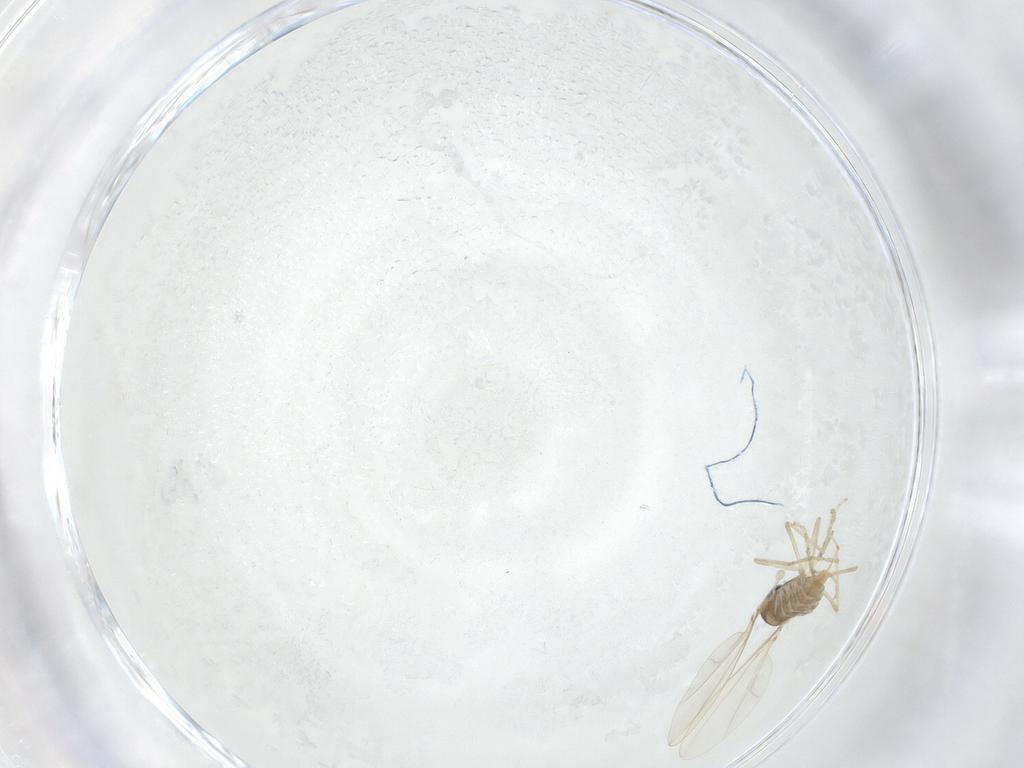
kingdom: Animalia
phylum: Arthropoda
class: Insecta
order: Diptera
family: Cecidomyiidae
